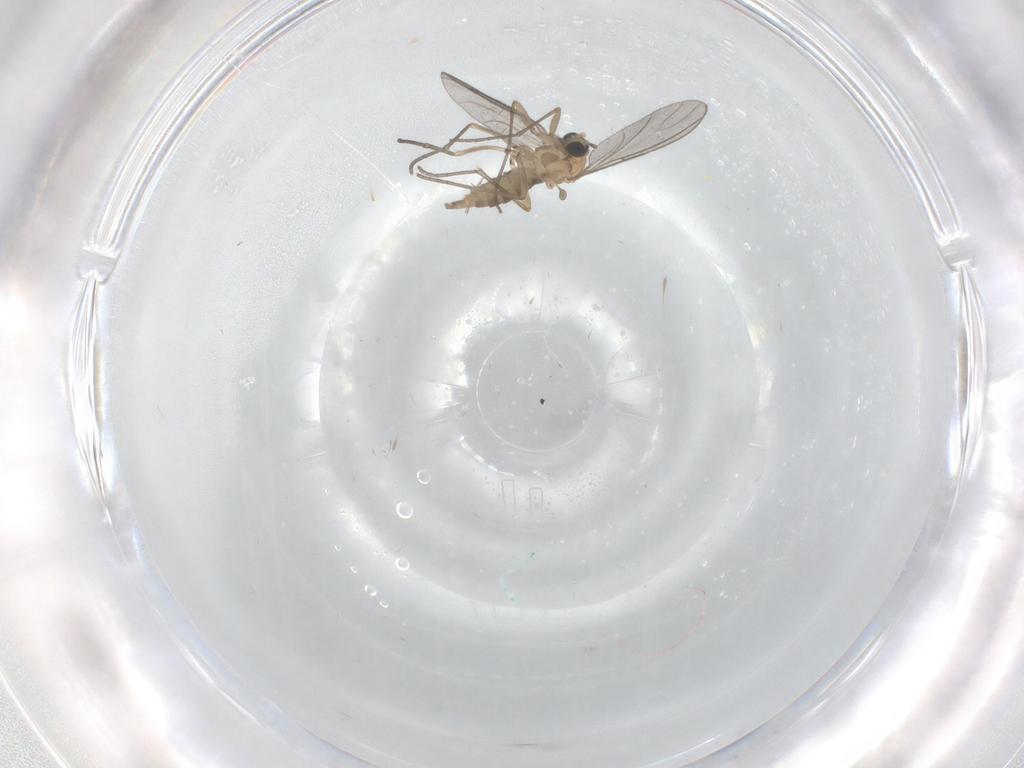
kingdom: Animalia
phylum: Arthropoda
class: Insecta
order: Diptera
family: Sciaridae
